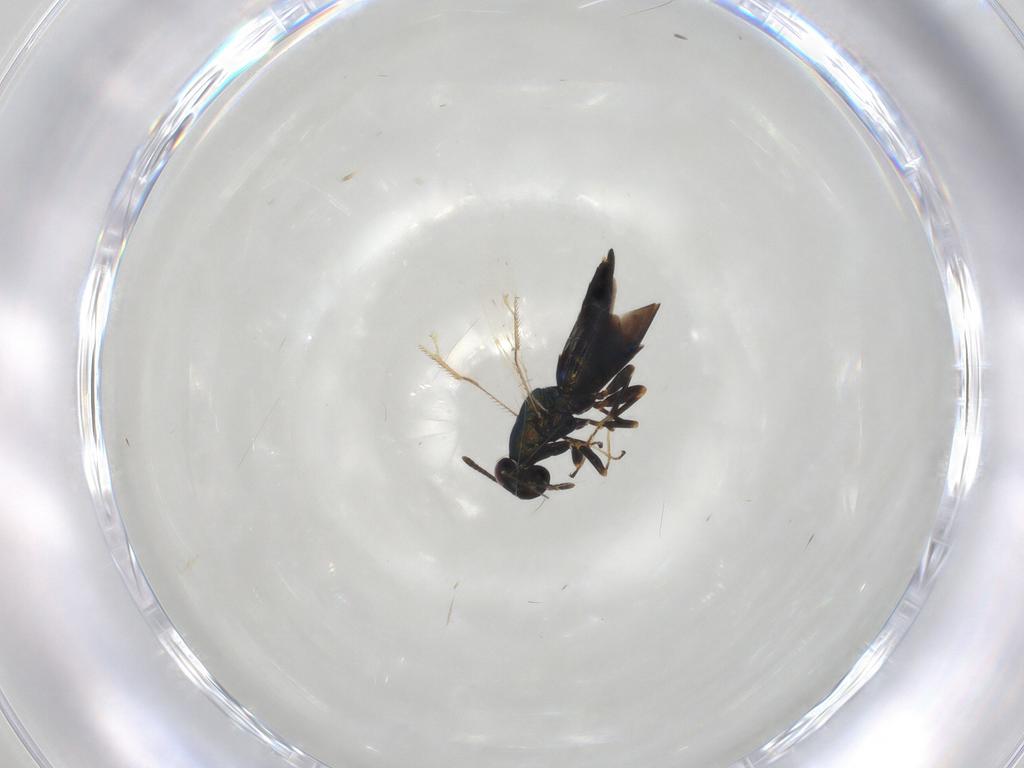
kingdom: Animalia
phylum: Arthropoda
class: Insecta
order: Hymenoptera
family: Pteromalidae
